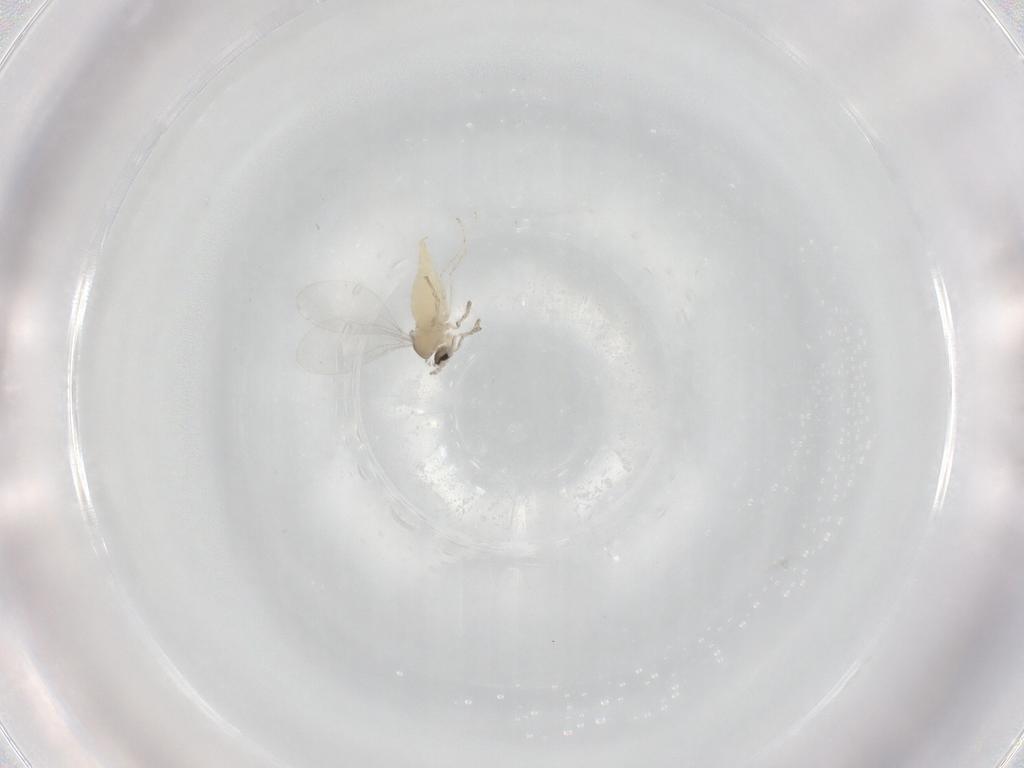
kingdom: Animalia
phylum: Arthropoda
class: Insecta
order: Diptera
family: Cecidomyiidae
